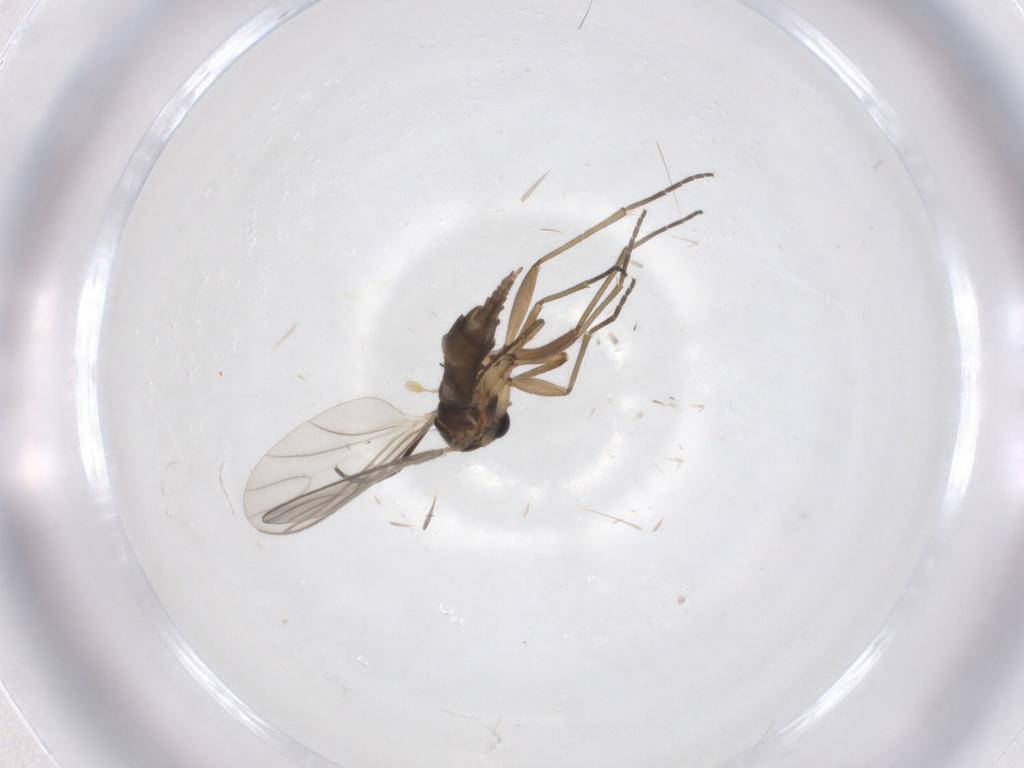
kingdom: Animalia
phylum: Arthropoda
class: Insecta
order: Diptera
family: Sciaridae
